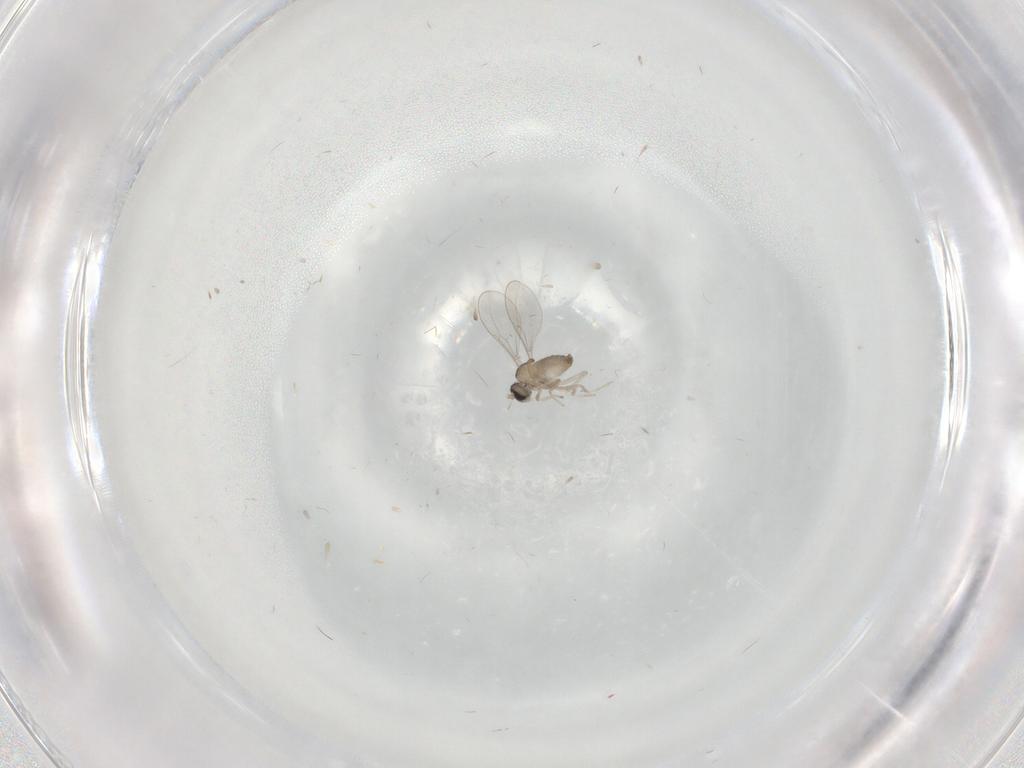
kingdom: Animalia
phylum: Arthropoda
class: Insecta
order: Diptera
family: Cecidomyiidae
